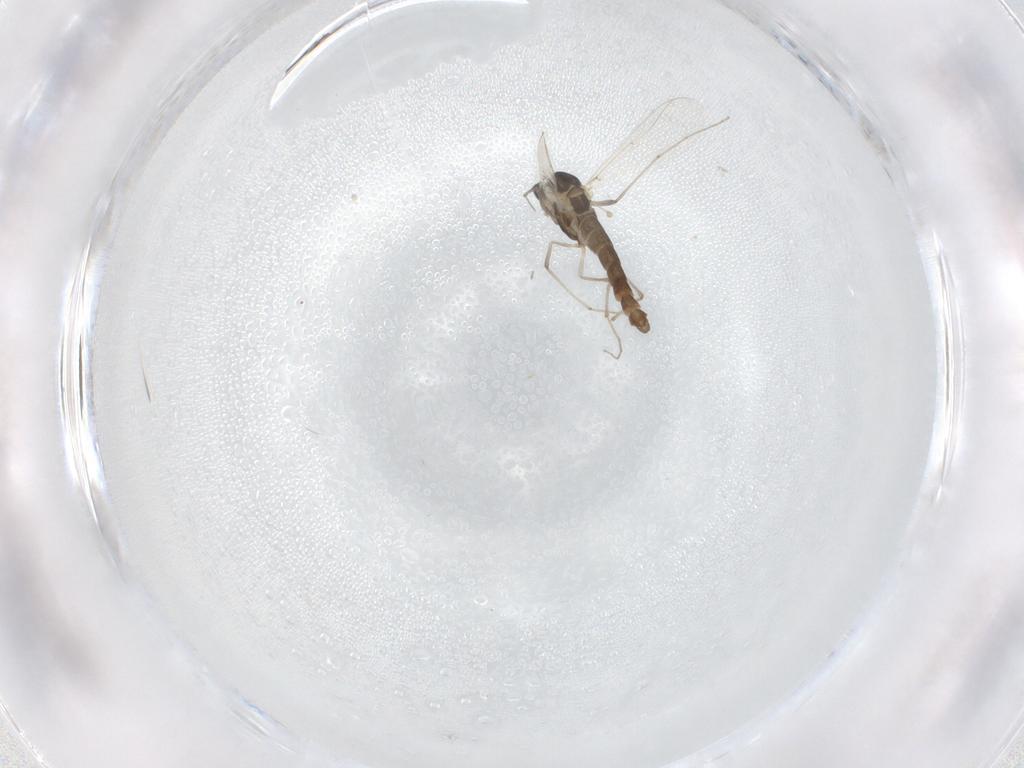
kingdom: Animalia
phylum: Arthropoda
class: Insecta
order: Diptera
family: Chironomidae
